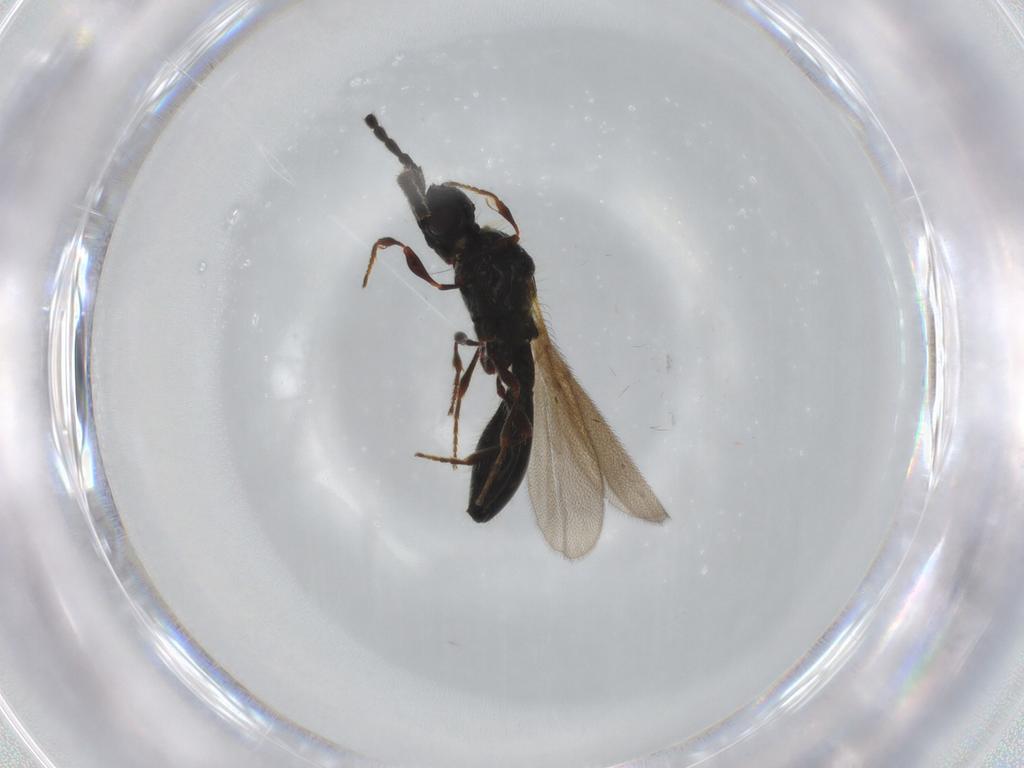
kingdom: Animalia
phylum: Arthropoda
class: Insecta
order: Hymenoptera
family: Diapriidae
